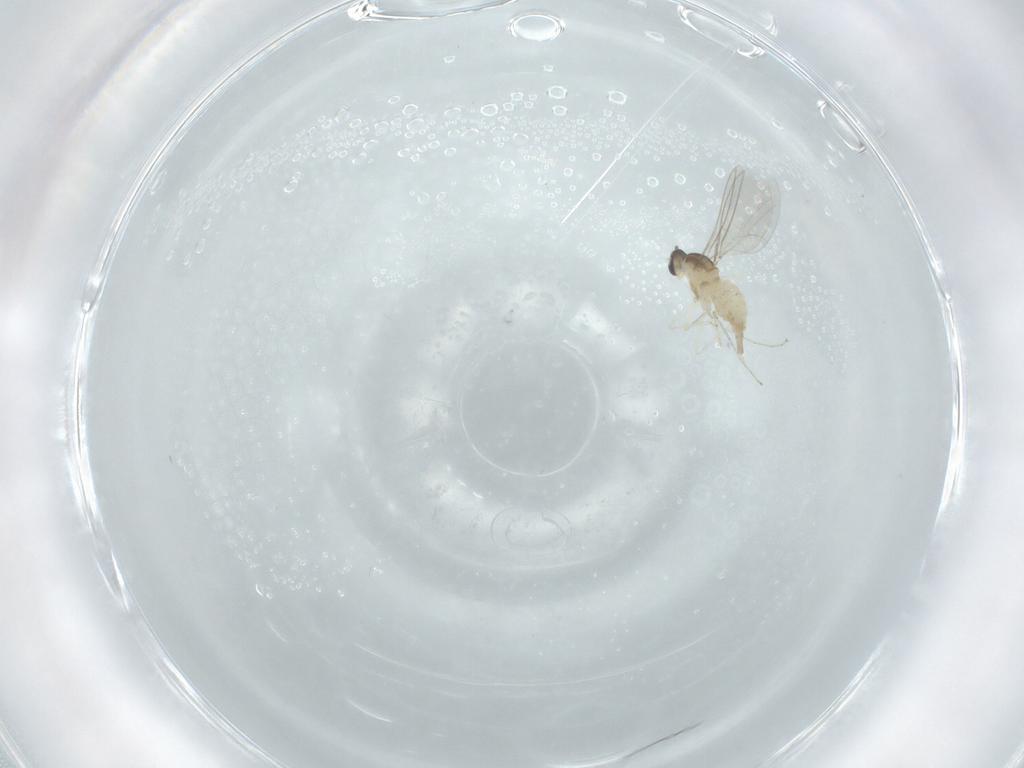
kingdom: Animalia
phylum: Arthropoda
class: Insecta
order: Diptera
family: Cecidomyiidae
